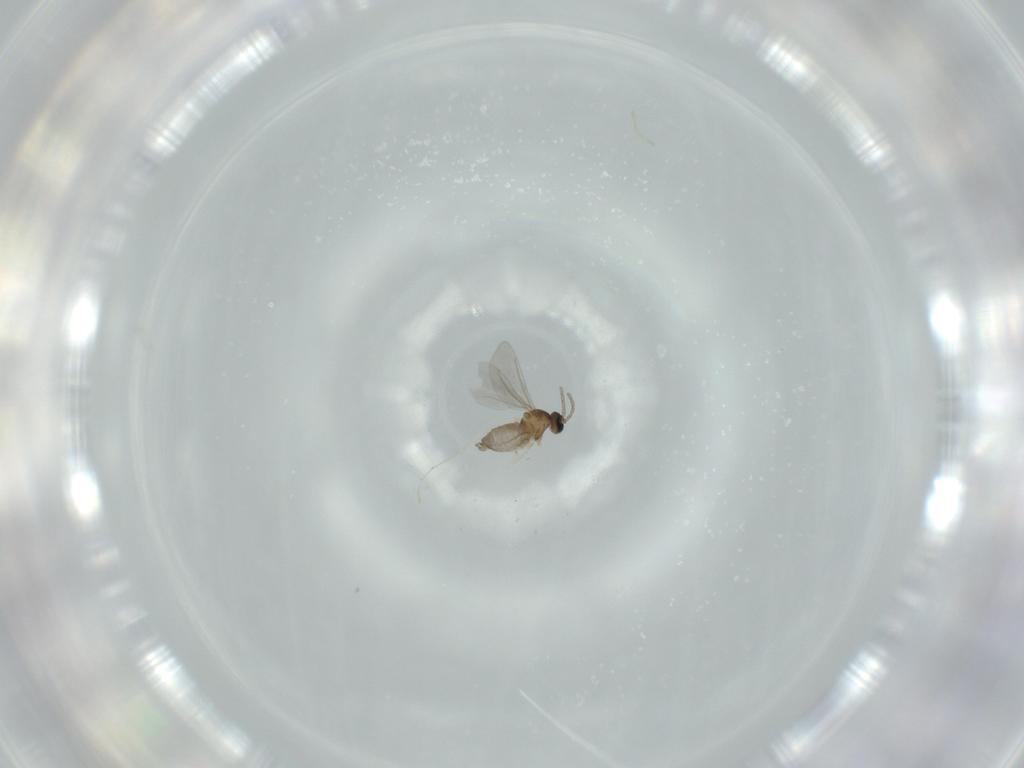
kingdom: Animalia
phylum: Arthropoda
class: Insecta
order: Diptera
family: Cecidomyiidae
